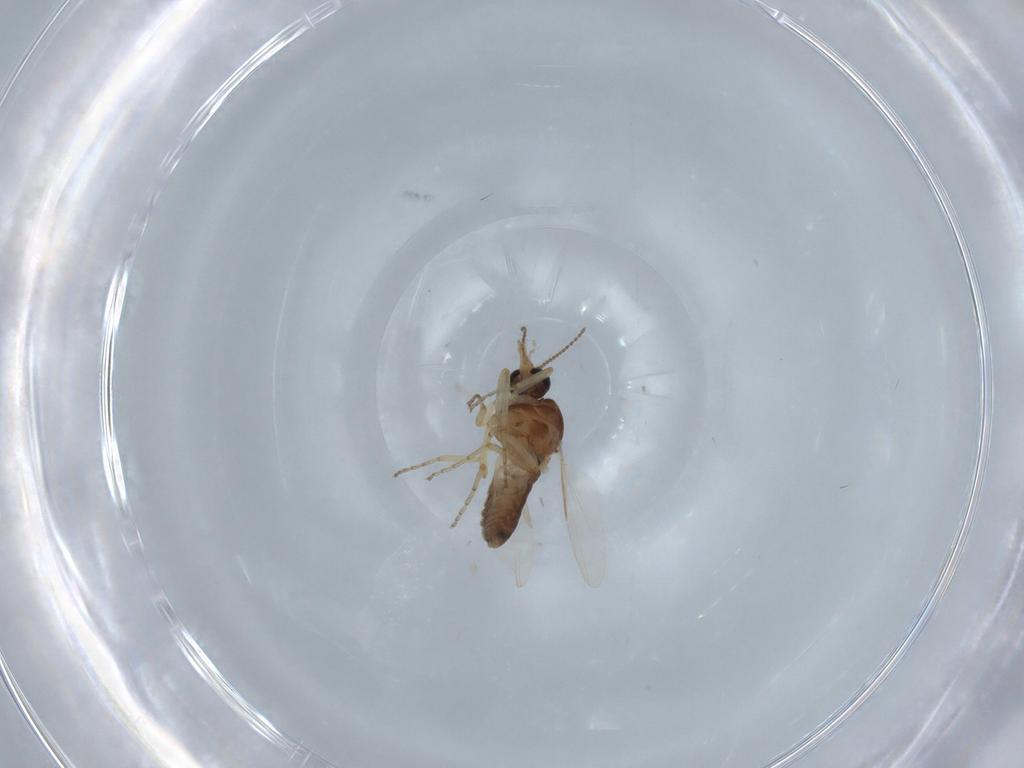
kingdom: Animalia
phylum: Arthropoda
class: Insecta
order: Diptera
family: Ceratopogonidae
